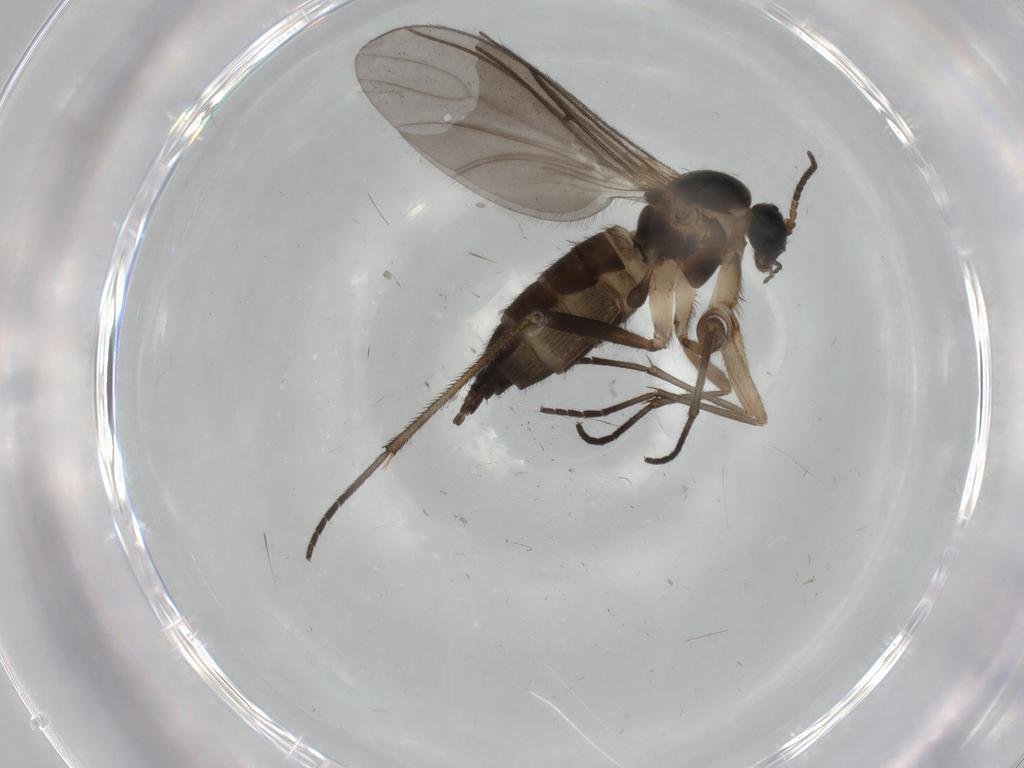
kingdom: Animalia
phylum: Arthropoda
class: Insecta
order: Diptera
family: Sciaridae
